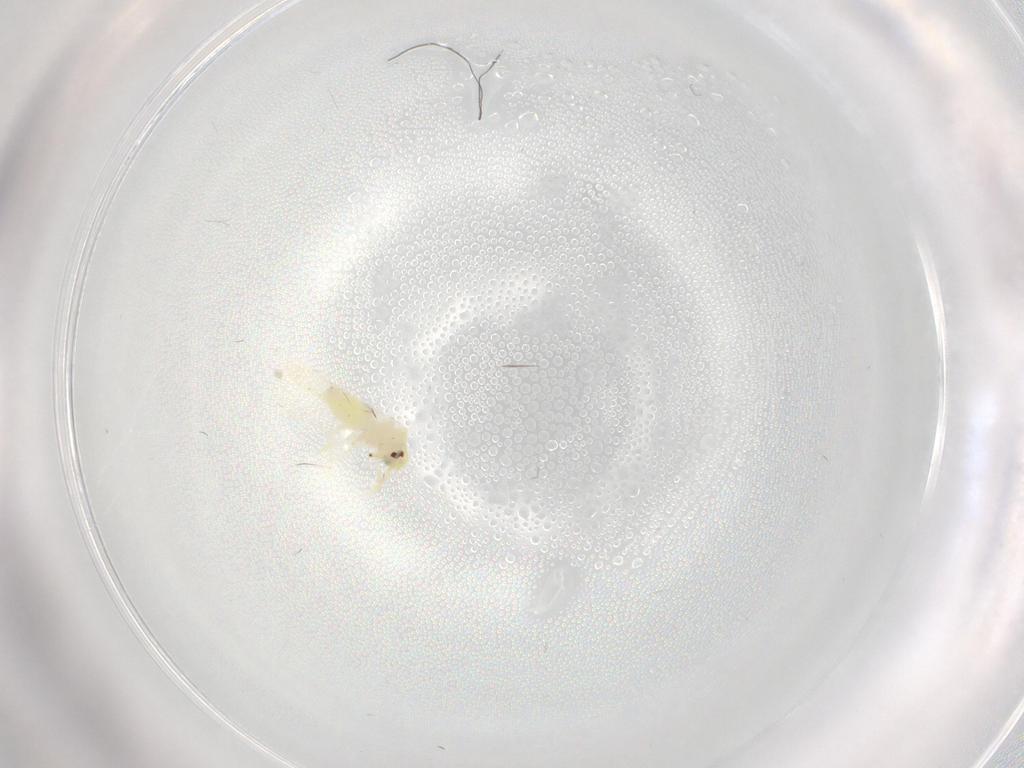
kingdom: Animalia
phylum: Arthropoda
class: Insecta
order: Hemiptera
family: Aleyrodidae
